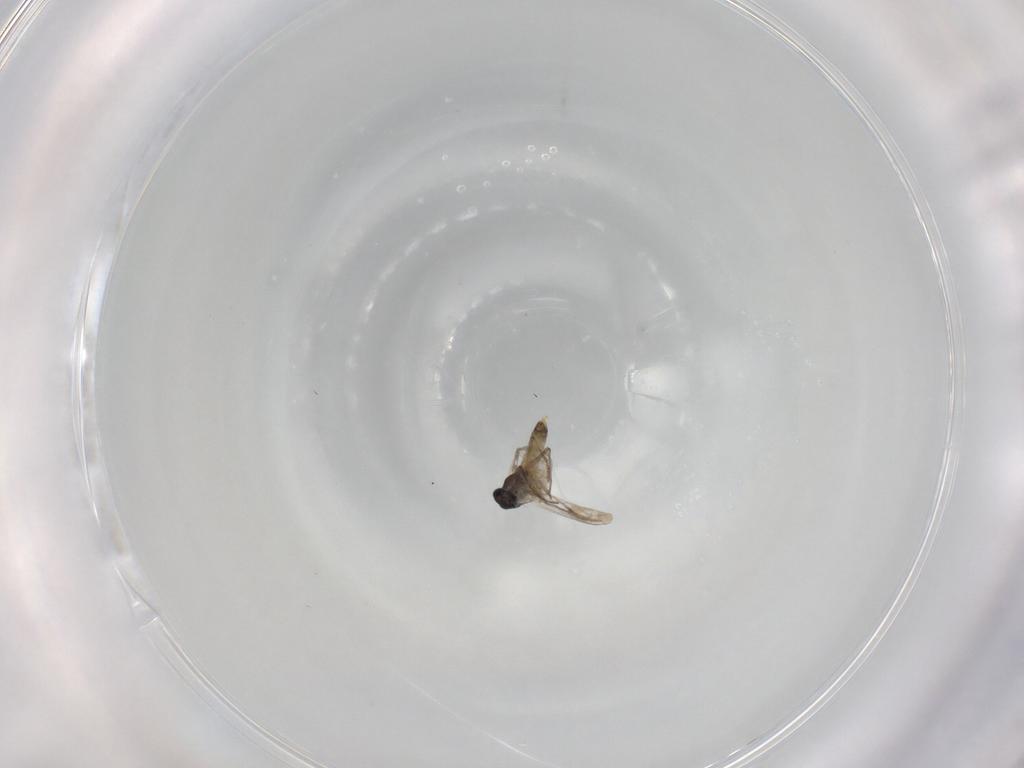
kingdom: Animalia
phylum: Arthropoda
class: Insecta
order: Diptera
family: Chironomidae
